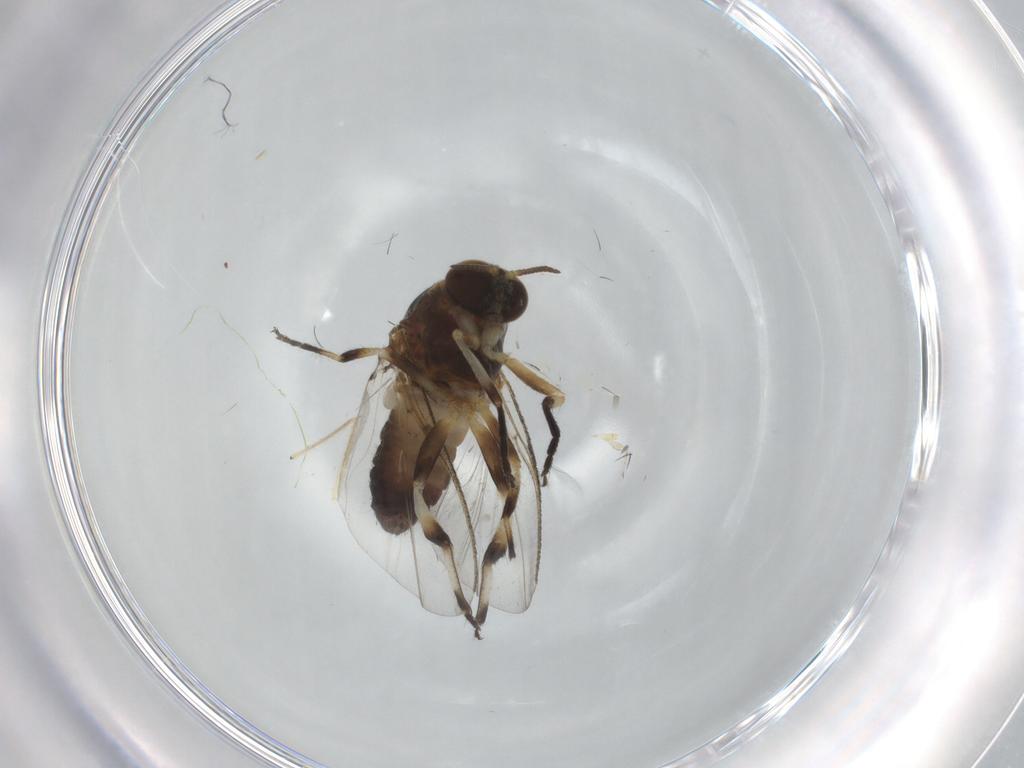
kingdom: Animalia
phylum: Arthropoda
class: Insecta
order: Diptera
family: Pipunculidae
